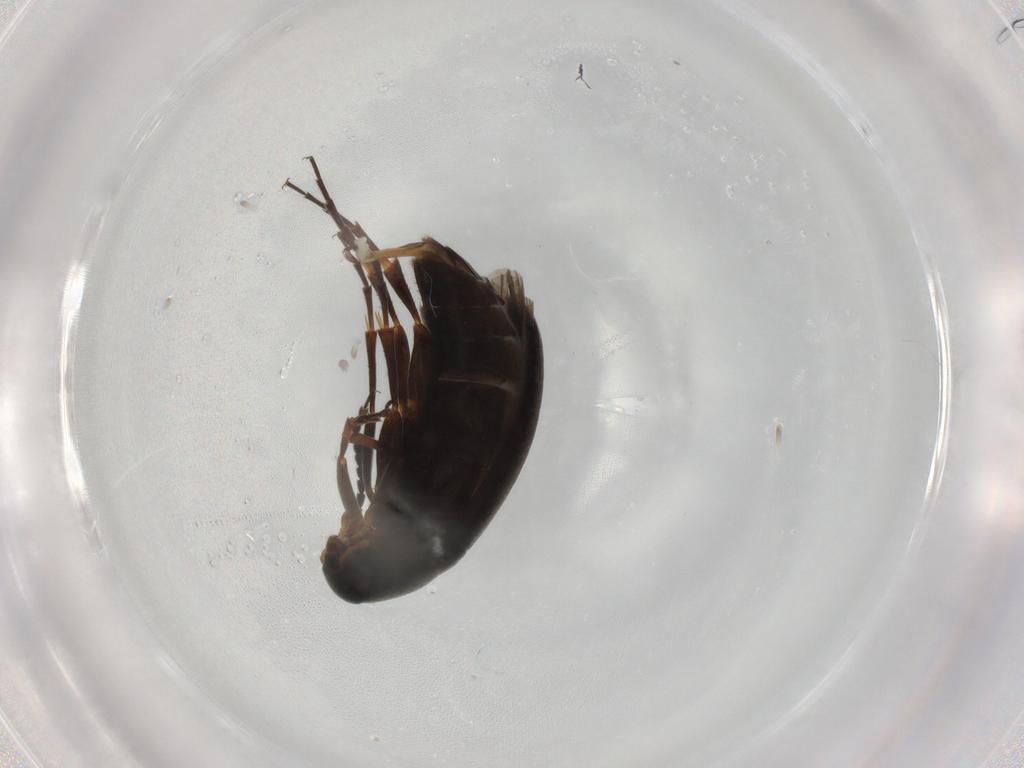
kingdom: Animalia
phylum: Arthropoda
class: Insecta
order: Coleoptera
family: Scraptiidae
